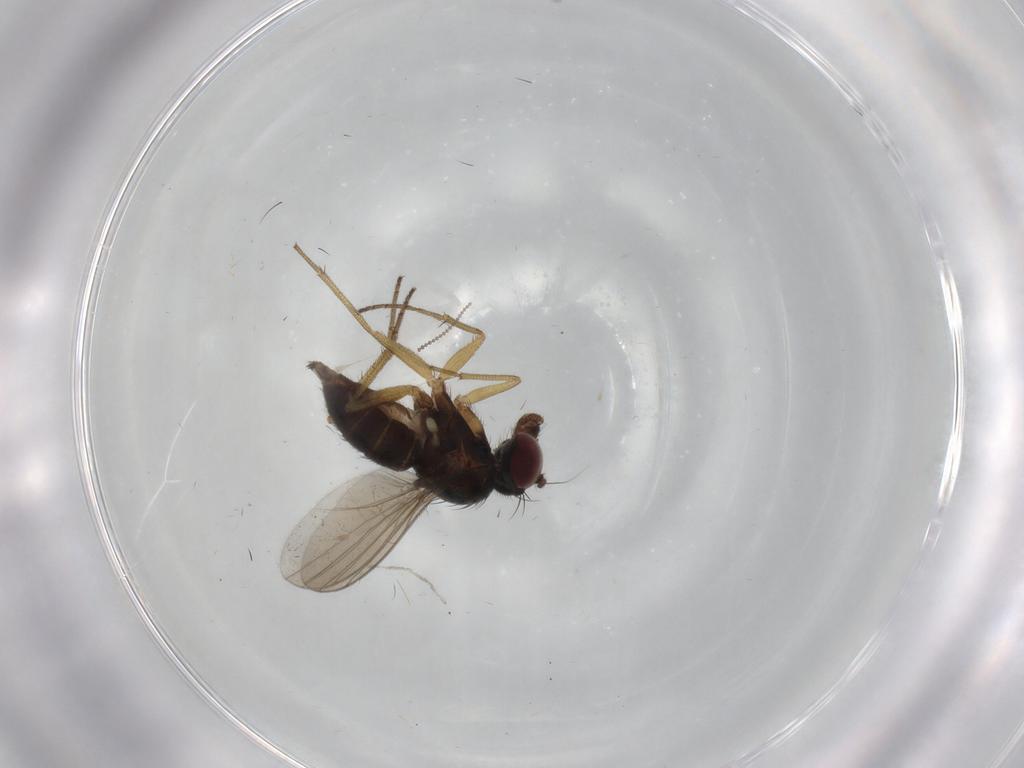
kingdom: Animalia
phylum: Arthropoda
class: Insecta
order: Diptera
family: Dolichopodidae
